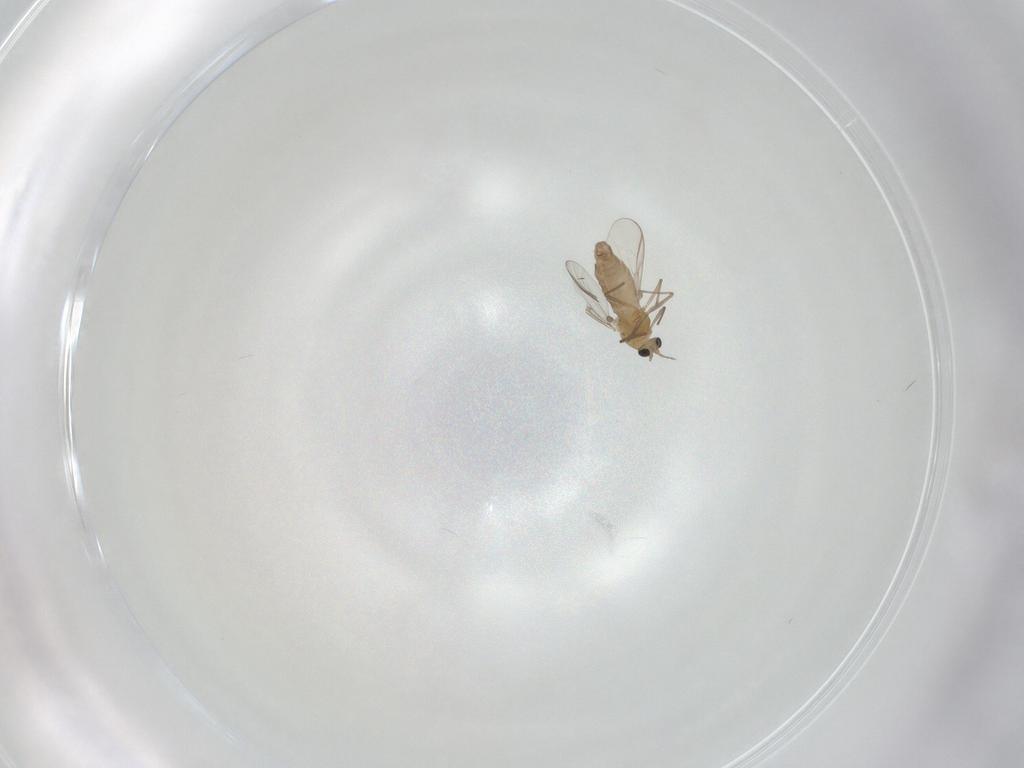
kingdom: Animalia
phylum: Arthropoda
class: Insecta
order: Diptera
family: Chironomidae
